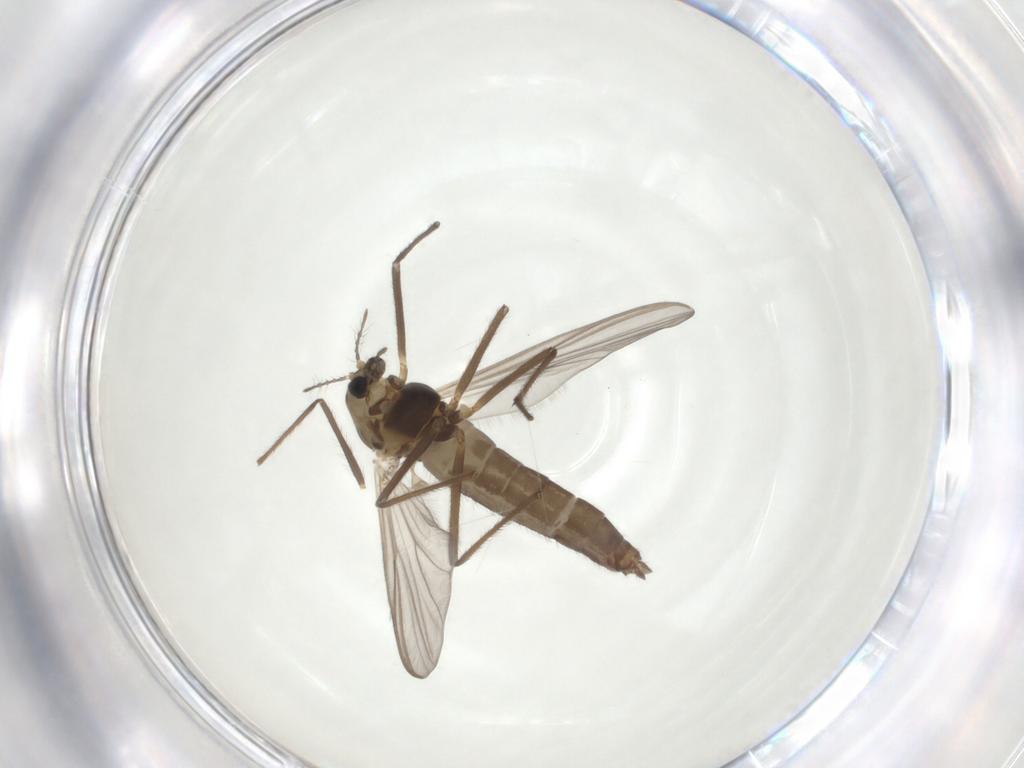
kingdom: Animalia
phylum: Arthropoda
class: Insecta
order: Diptera
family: Chironomidae
